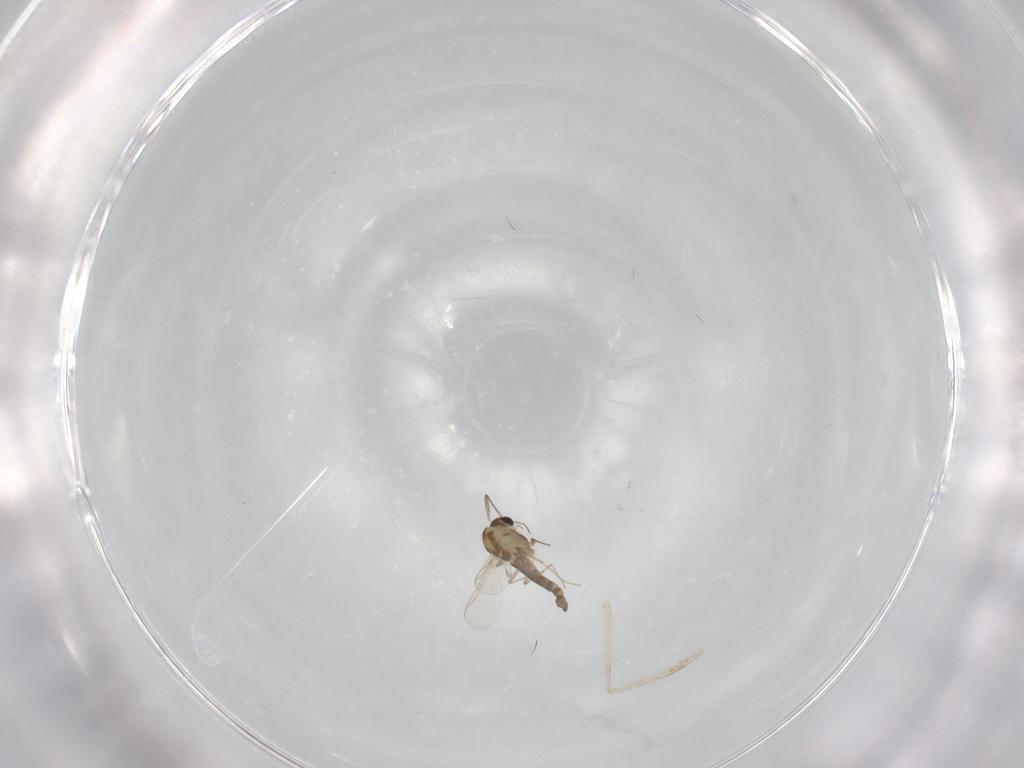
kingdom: Animalia
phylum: Arthropoda
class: Insecta
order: Diptera
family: Chironomidae
